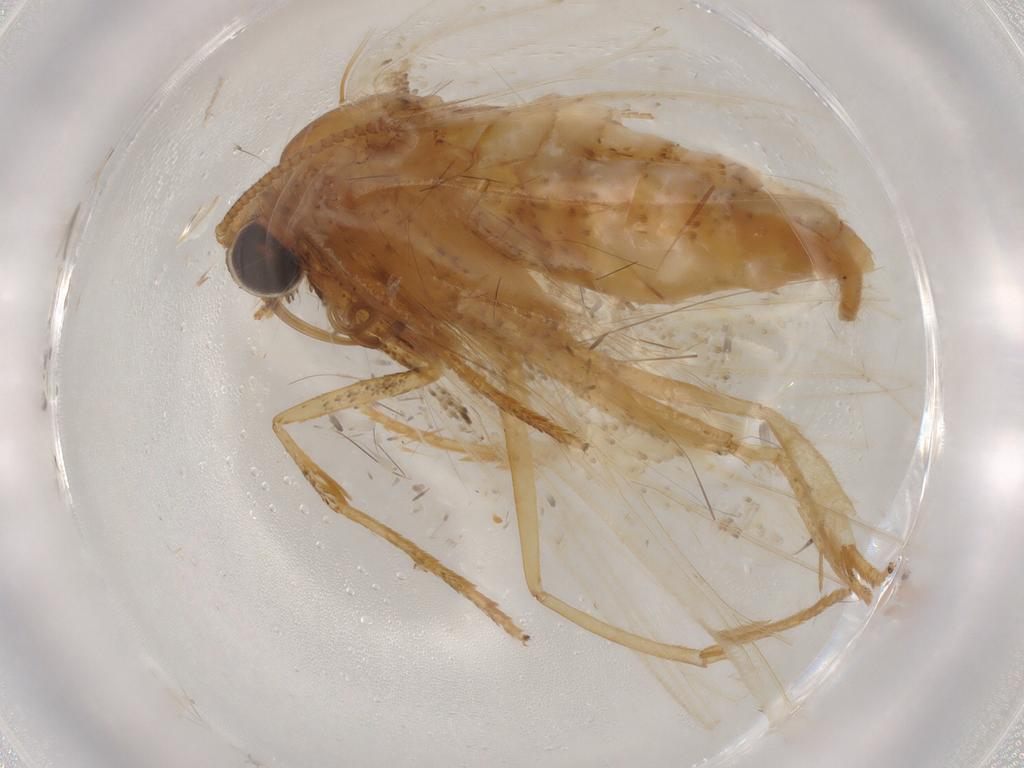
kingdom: Animalia
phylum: Arthropoda
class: Insecta
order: Lepidoptera
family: Geometridae
